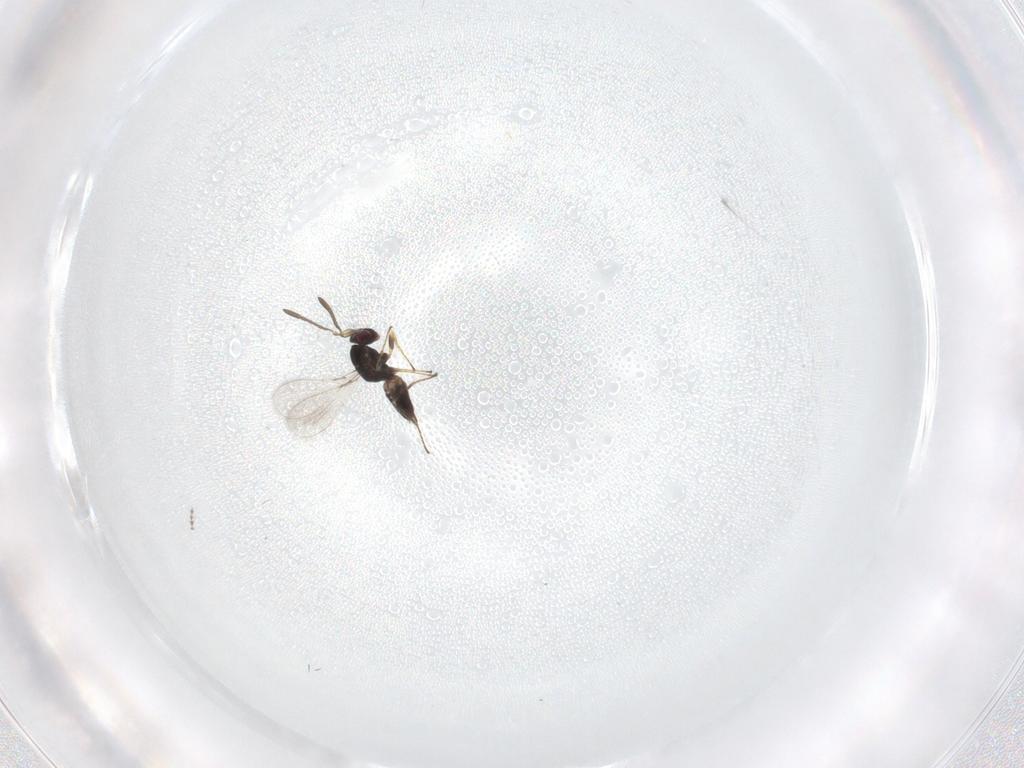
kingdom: Animalia
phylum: Arthropoda
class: Insecta
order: Hymenoptera
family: Mymaridae
